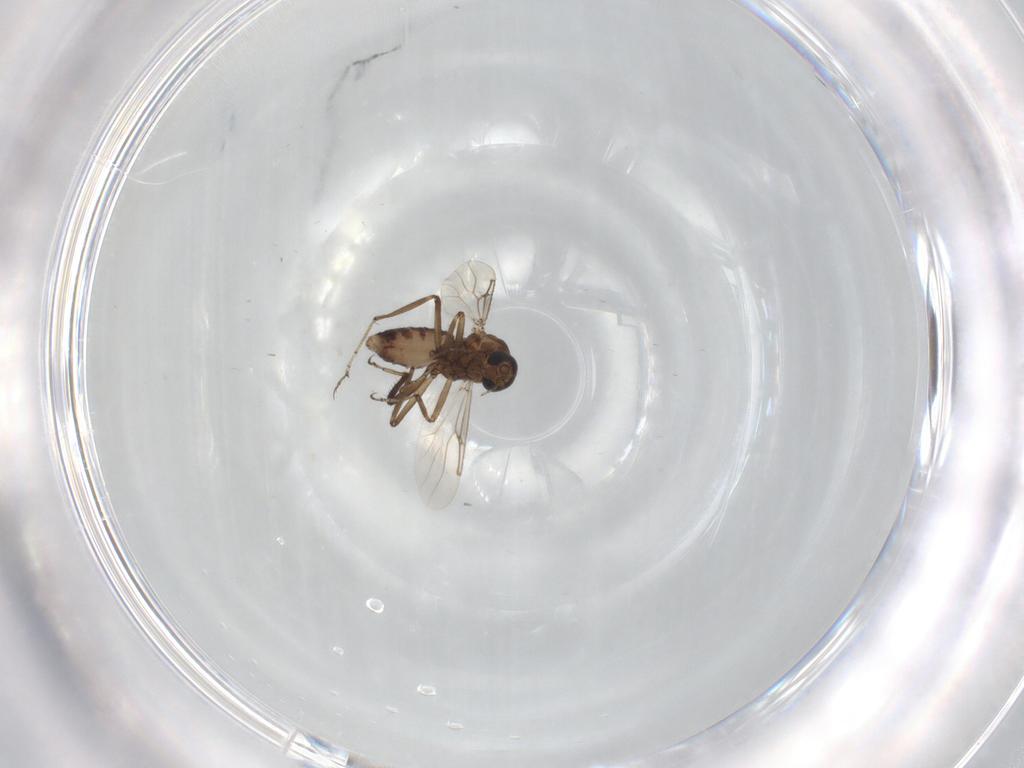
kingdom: Animalia
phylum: Arthropoda
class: Insecta
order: Diptera
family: Ceratopogonidae
